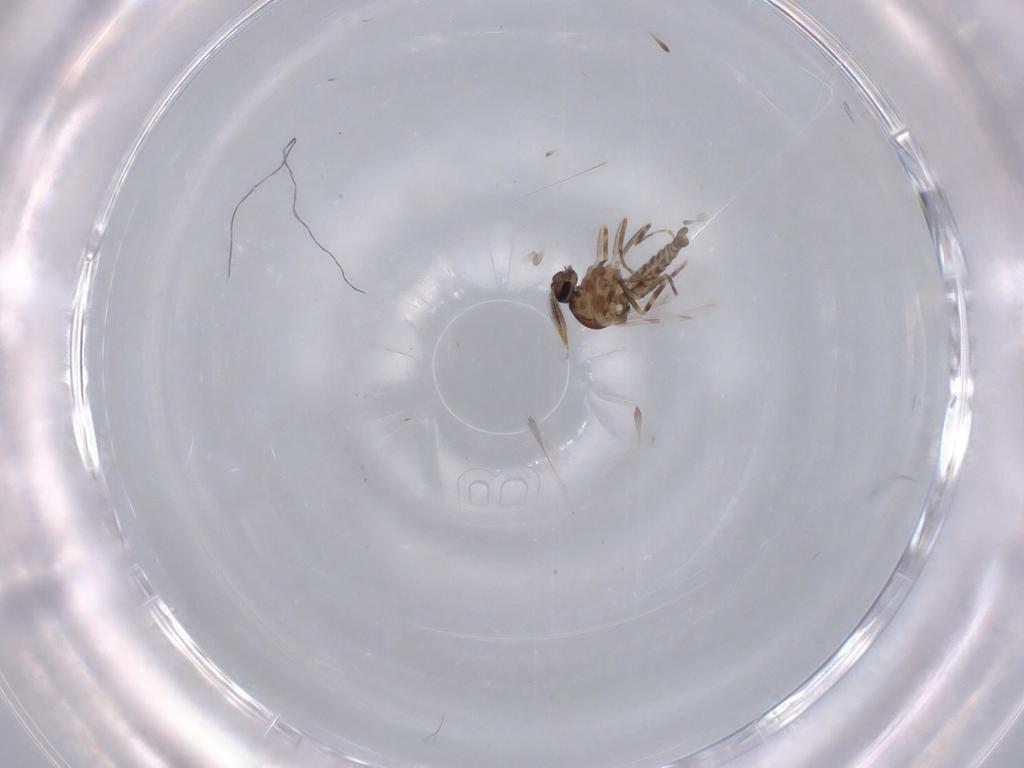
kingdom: Animalia
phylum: Arthropoda
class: Insecta
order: Diptera
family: Ceratopogonidae
